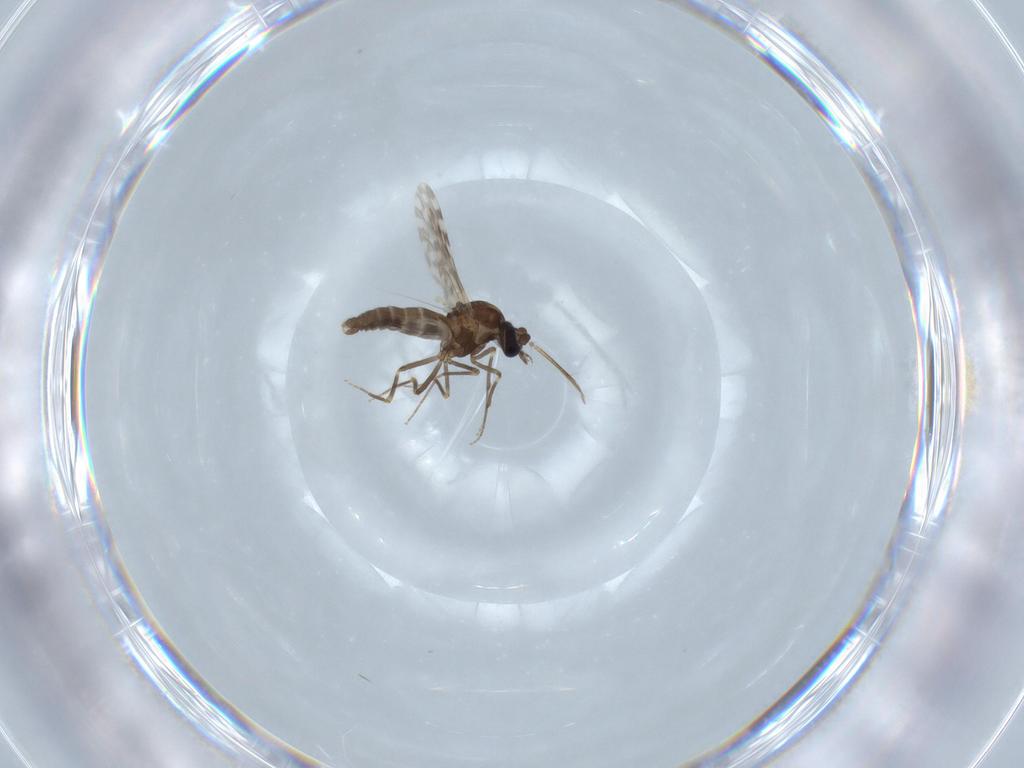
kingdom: Animalia
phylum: Arthropoda
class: Insecta
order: Diptera
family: Ceratopogonidae
